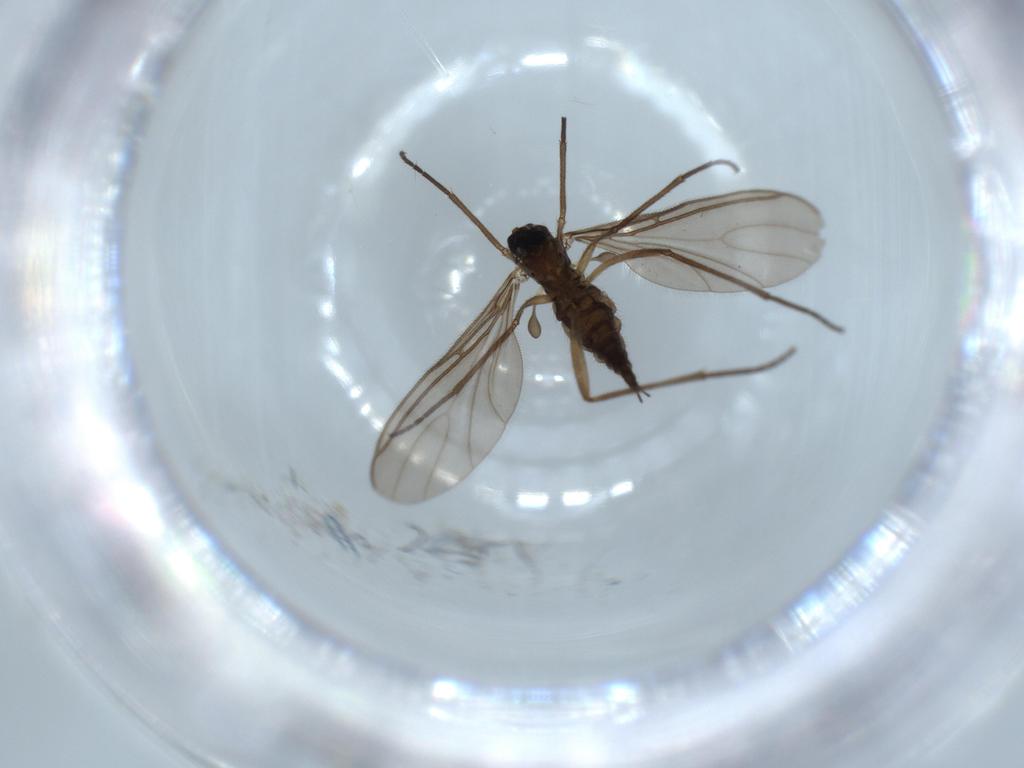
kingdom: Animalia
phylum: Arthropoda
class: Insecta
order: Diptera
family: Sciaridae
